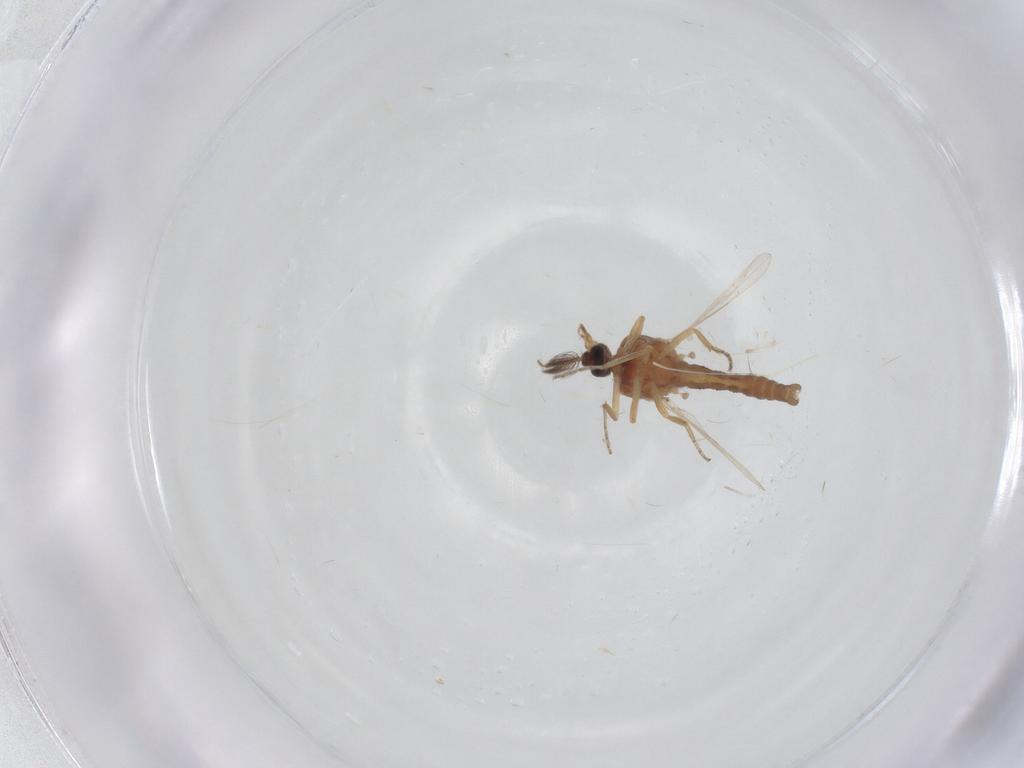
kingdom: Animalia
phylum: Arthropoda
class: Insecta
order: Diptera
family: Ceratopogonidae
